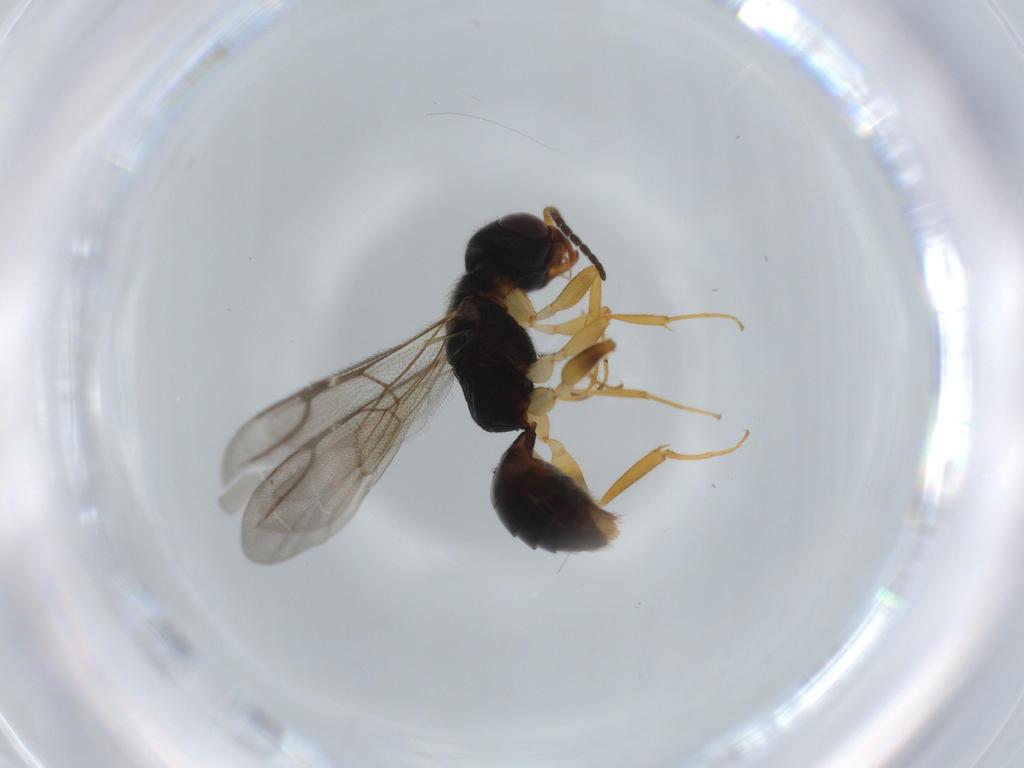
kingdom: Animalia
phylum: Arthropoda
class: Insecta
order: Hymenoptera
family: Bethylidae
